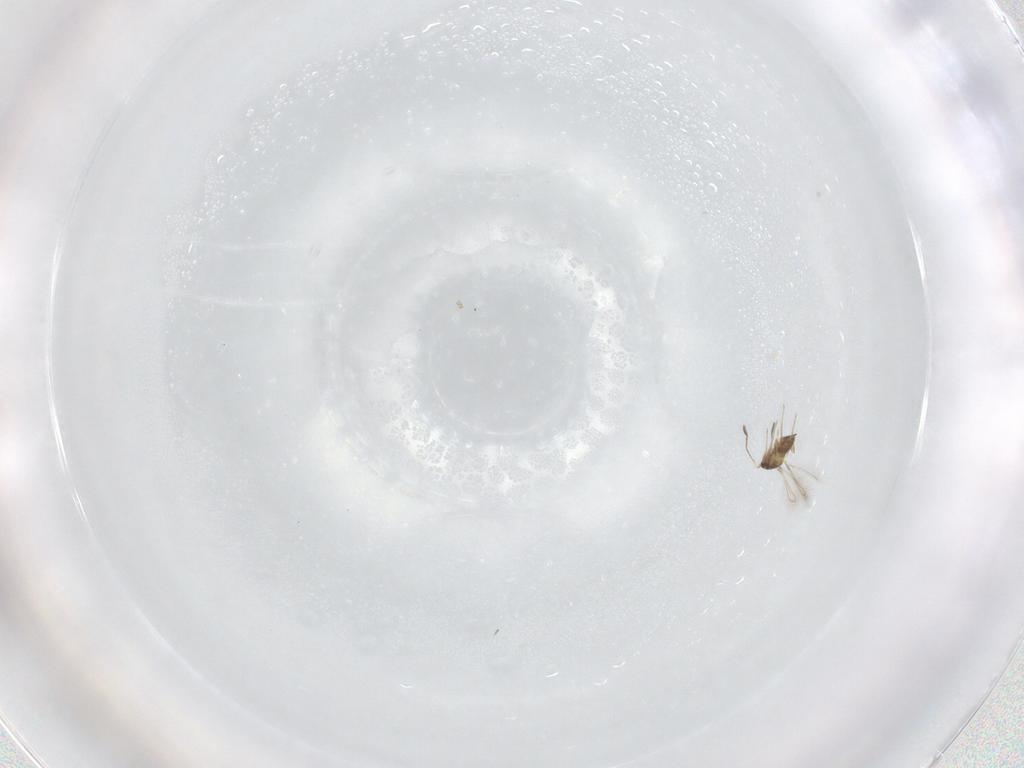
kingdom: Animalia
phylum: Arthropoda
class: Insecta
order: Hymenoptera
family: Mymaridae
